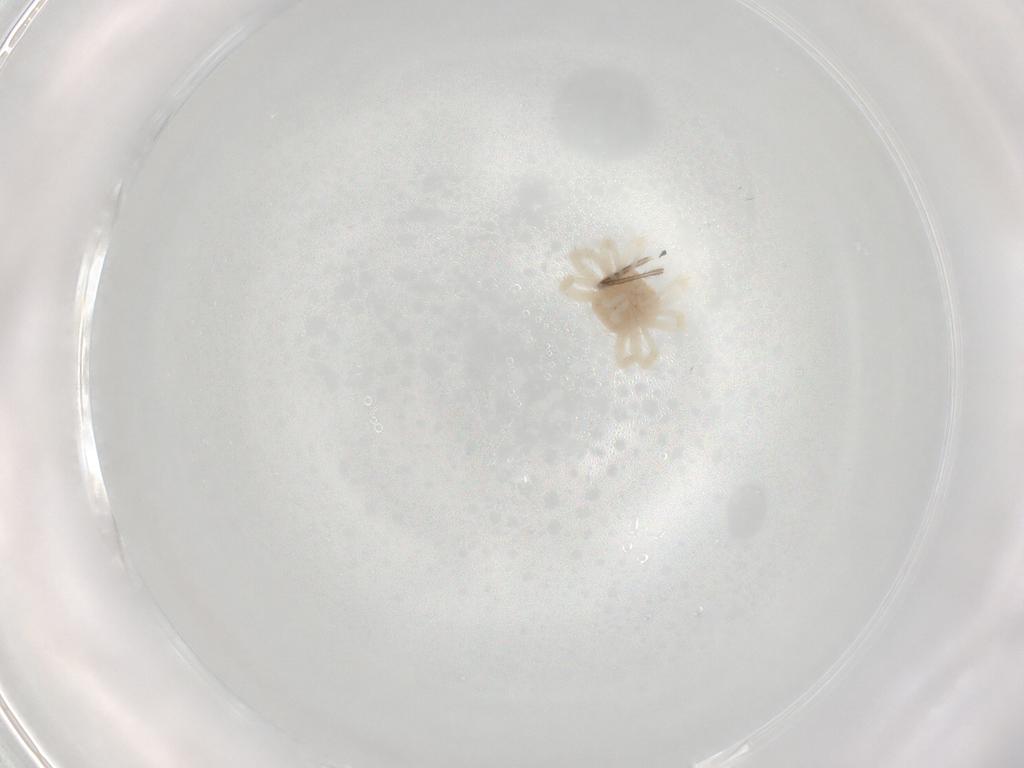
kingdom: Animalia
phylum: Arthropoda
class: Arachnida
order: Trombidiformes
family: Anystidae
